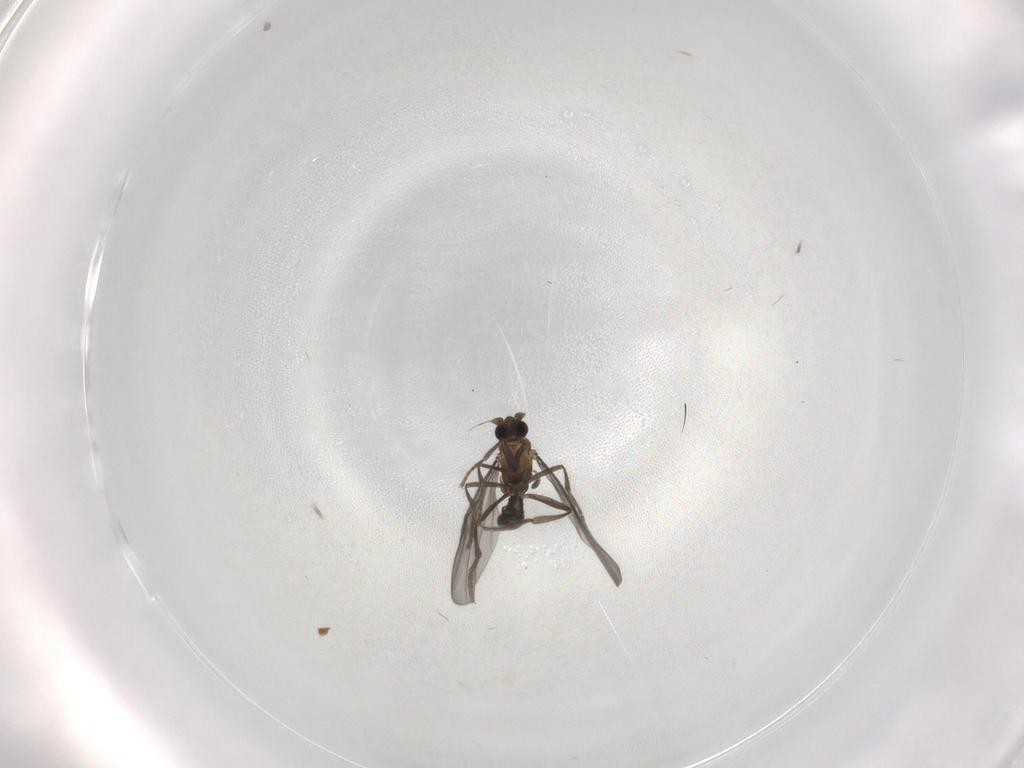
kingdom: Animalia
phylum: Arthropoda
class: Insecta
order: Diptera
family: Phoridae
